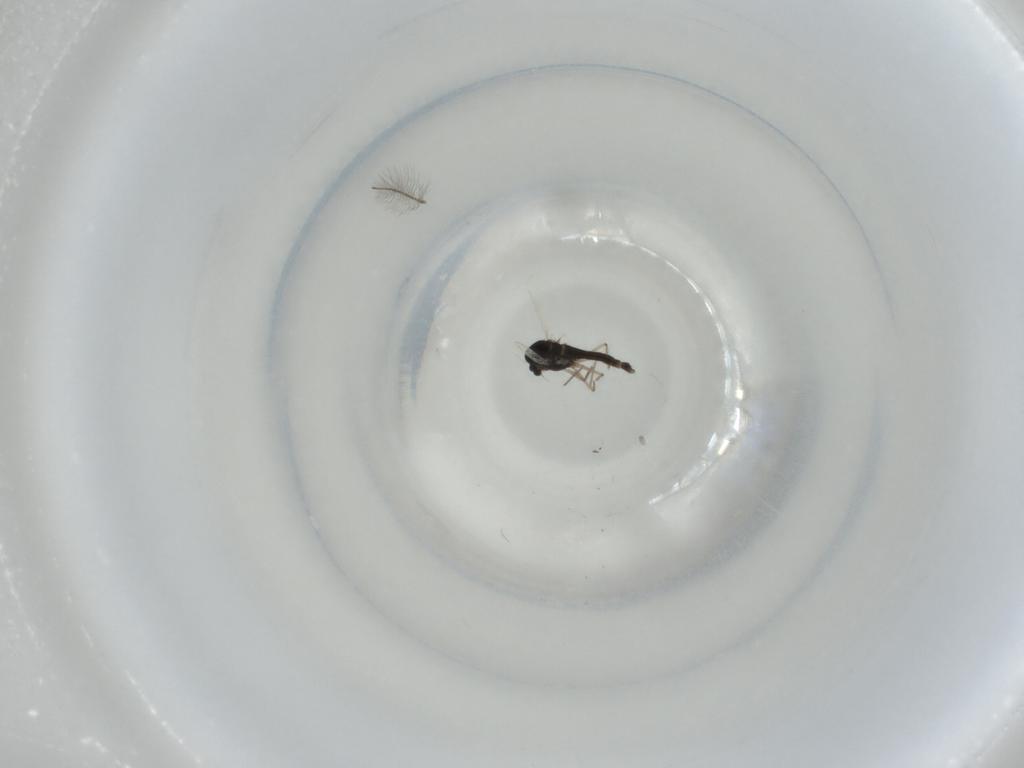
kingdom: Animalia
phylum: Arthropoda
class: Insecta
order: Diptera
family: Chironomidae
